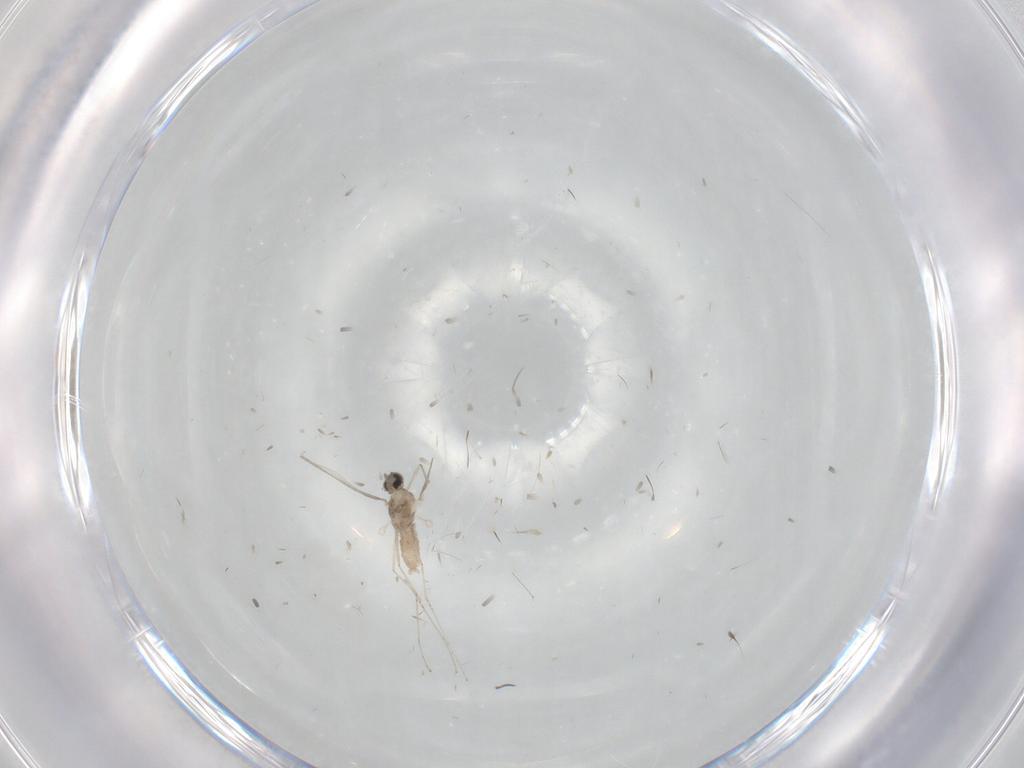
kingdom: Animalia
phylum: Arthropoda
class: Insecta
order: Diptera
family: Cecidomyiidae
